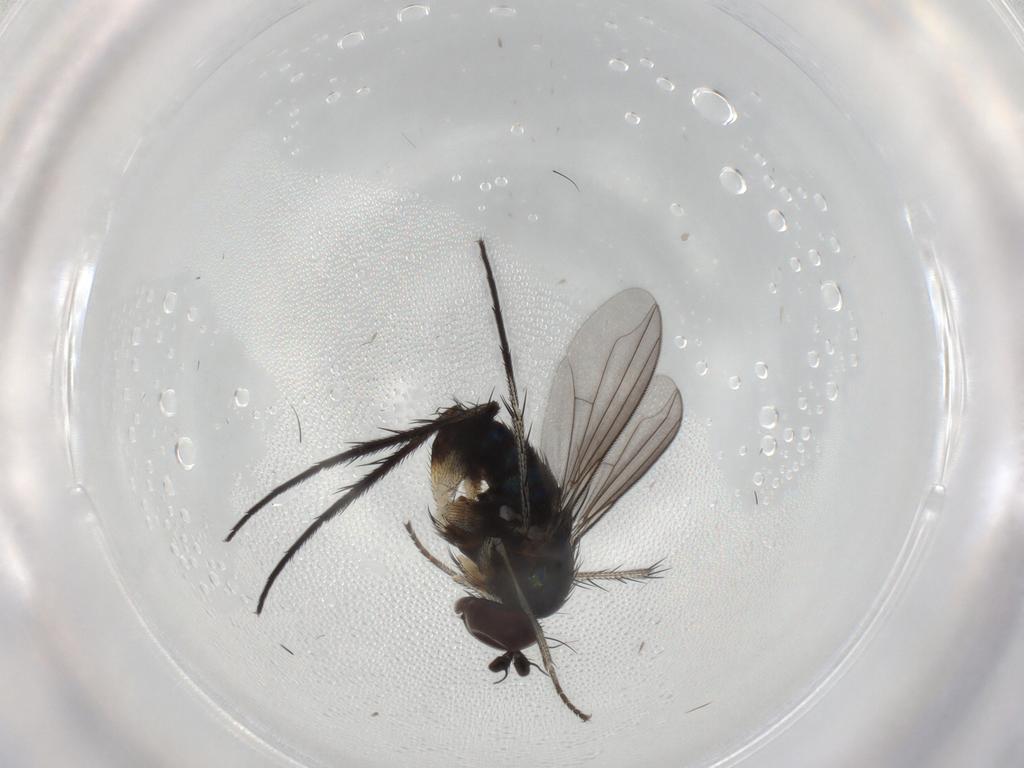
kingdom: Animalia
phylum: Arthropoda
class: Insecta
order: Diptera
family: Dolichopodidae
